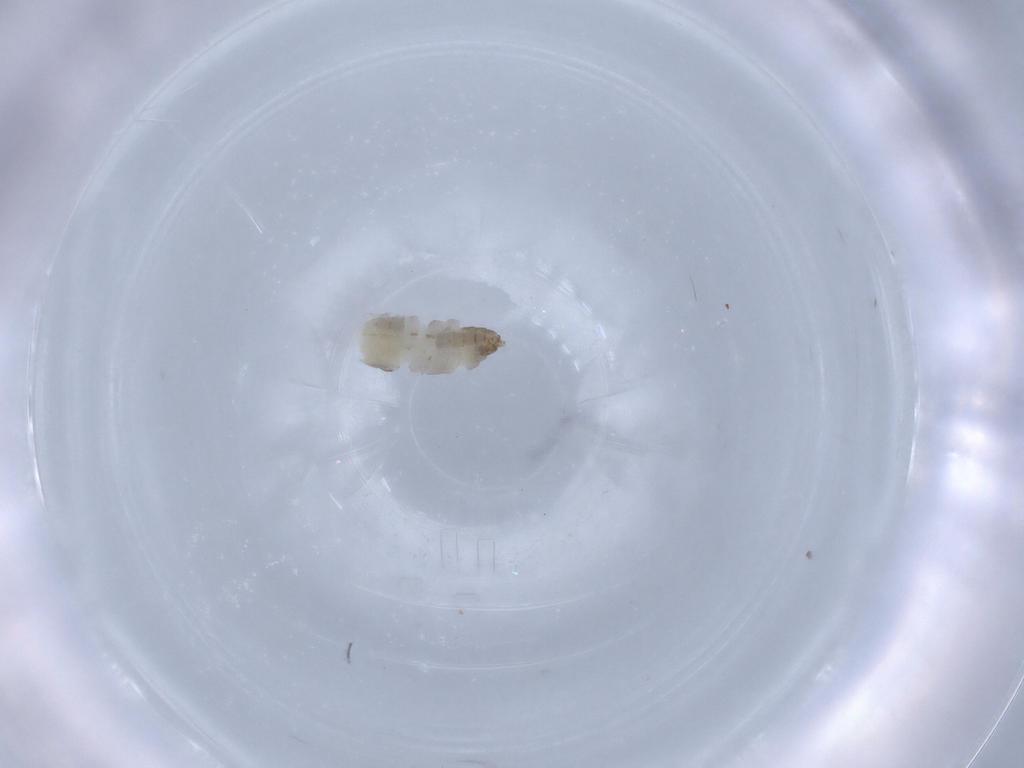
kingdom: Animalia
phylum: Arthropoda
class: Insecta
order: Diptera
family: Chironomidae
